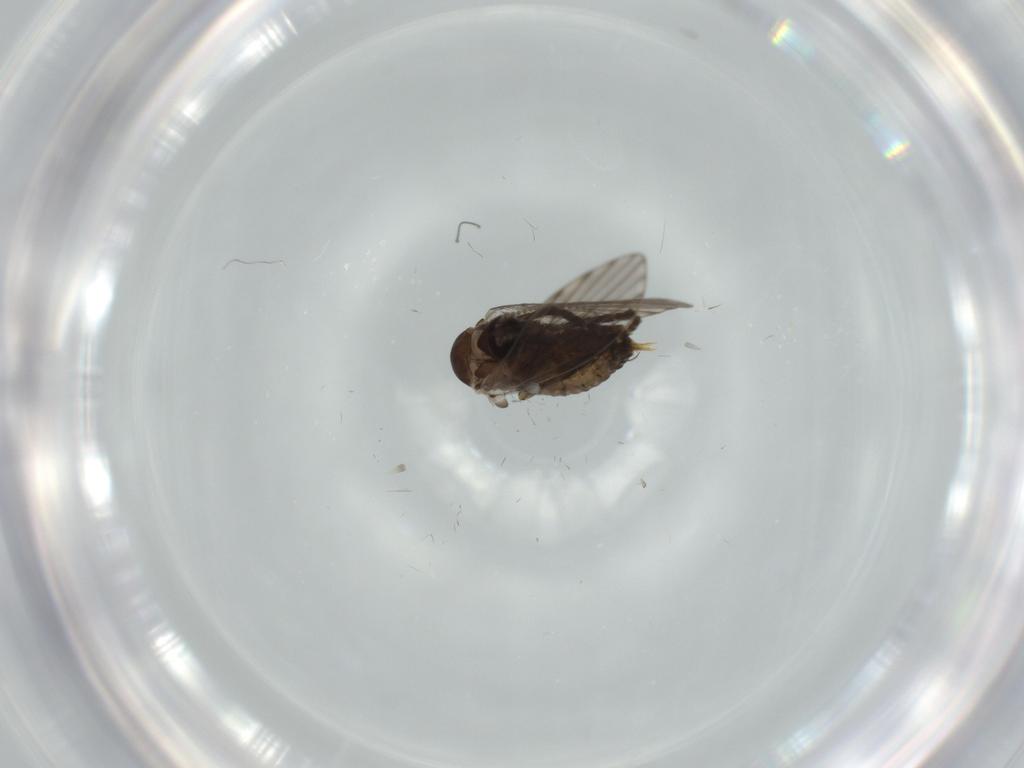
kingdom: Animalia
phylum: Arthropoda
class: Insecta
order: Diptera
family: Psychodidae
